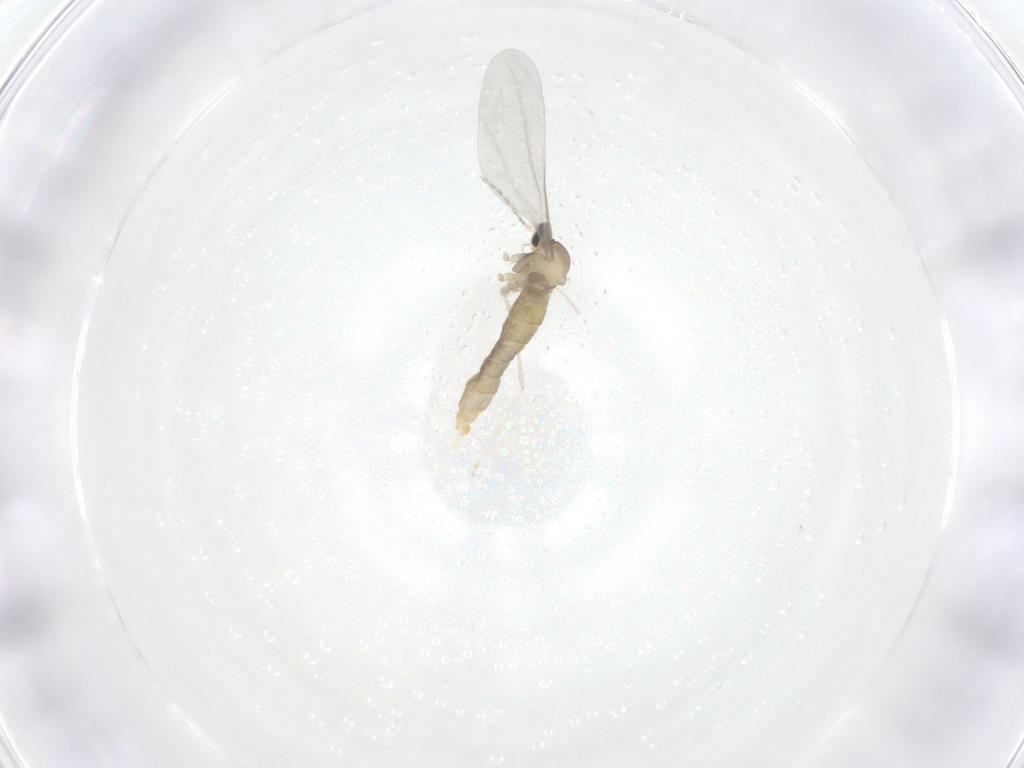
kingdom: Animalia
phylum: Arthropoda
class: Insecta
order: Diptera
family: Cecidomyiidae
